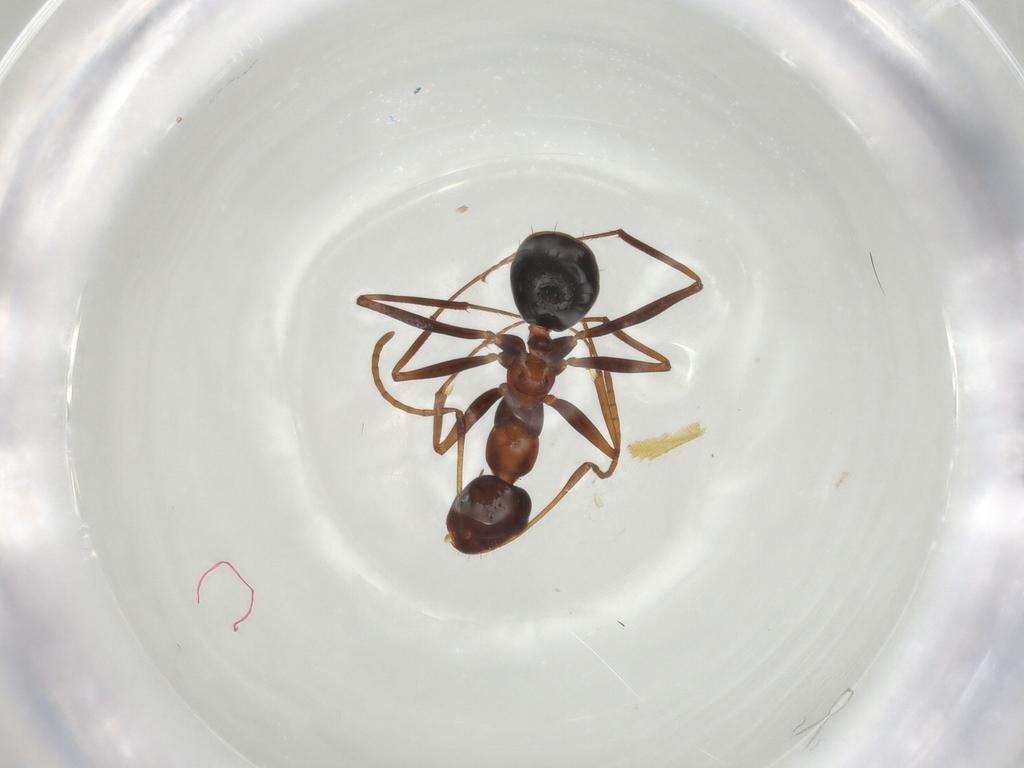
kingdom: Animalia
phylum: Arthropoda
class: Insecta
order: Hymenoptera
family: Formicidae
